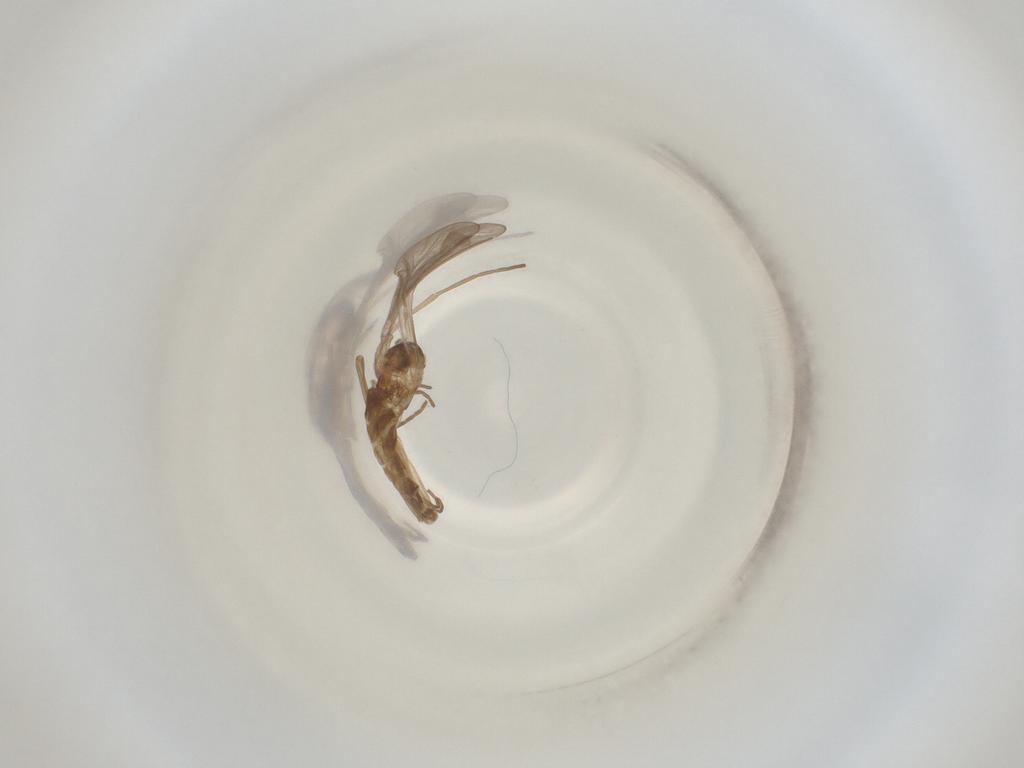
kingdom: Animalia
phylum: Arthropoda
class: Insecta
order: Diptera
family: Cecidomyiidae
